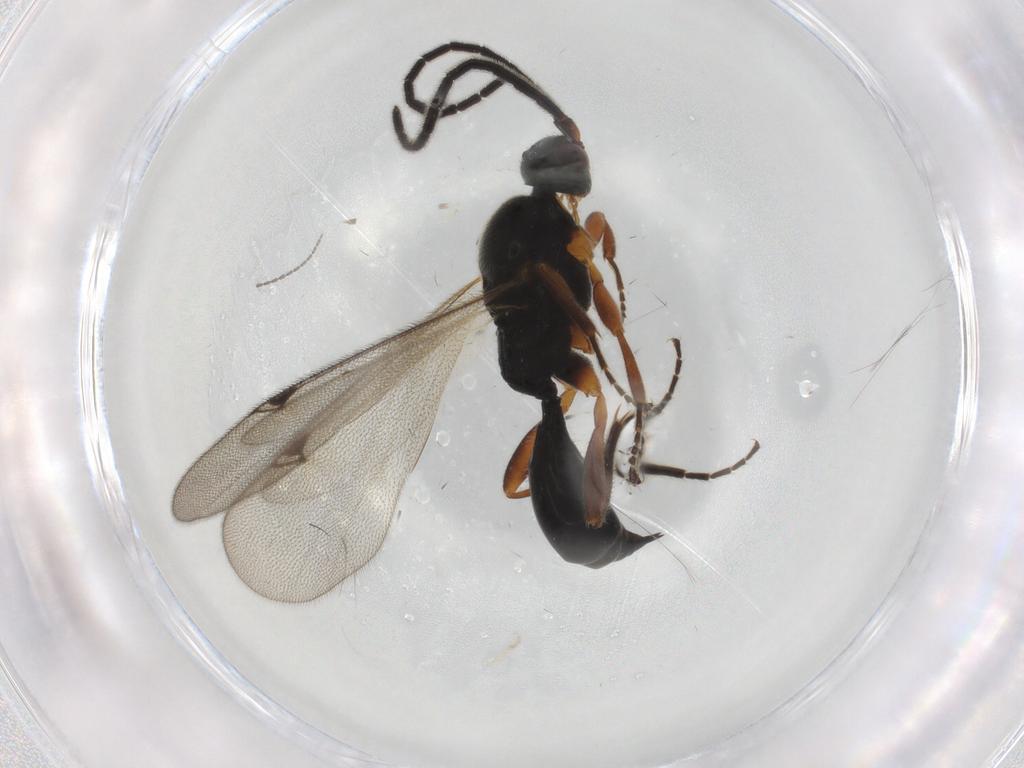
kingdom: Animalia
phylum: Arthropoda
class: Insecta
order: Hymenoptera
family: Proctotrupidae
